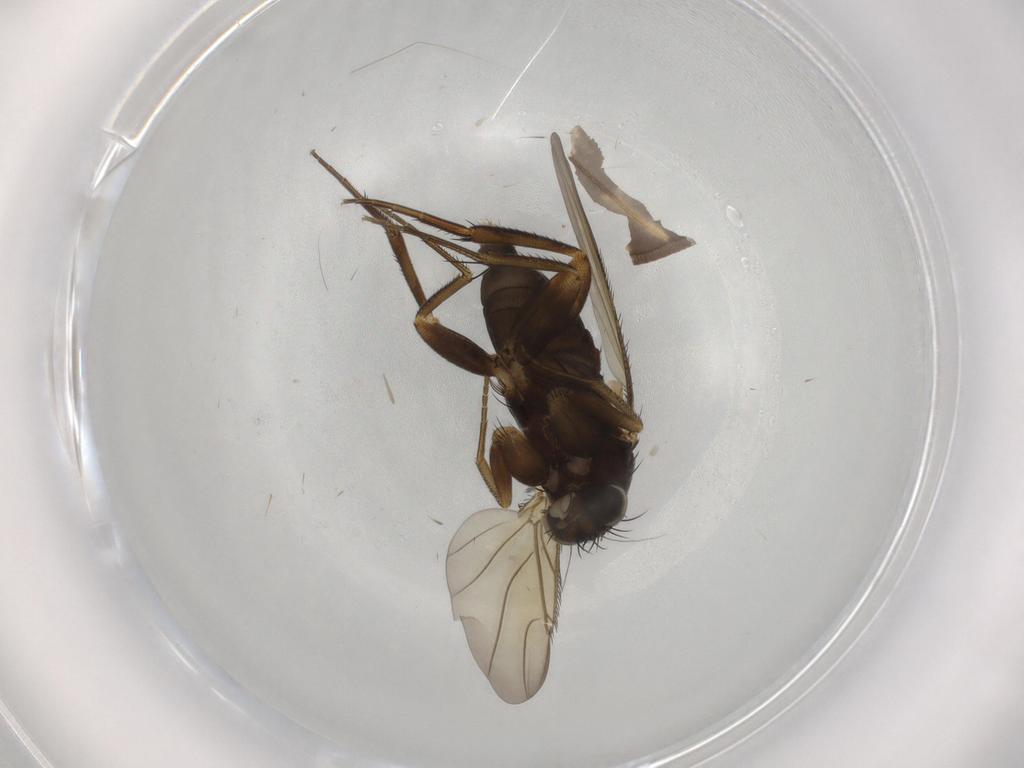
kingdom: Animalia
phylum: Arthropoda
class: Insecta
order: Diptera
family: Phoridae
